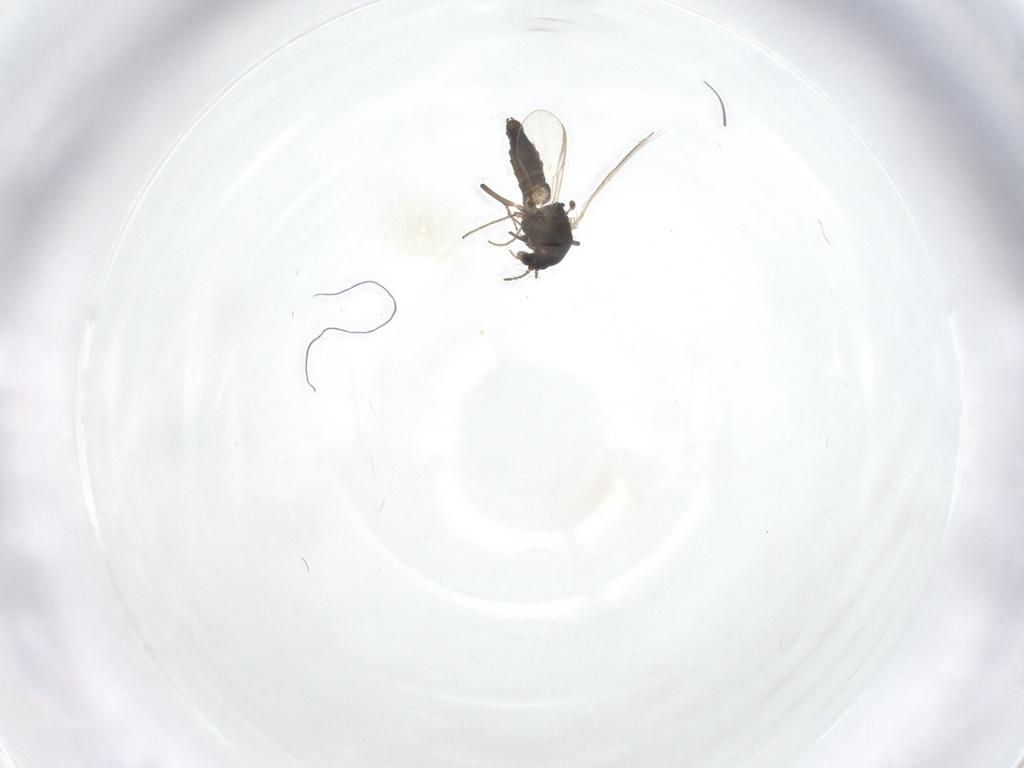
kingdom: Animalia
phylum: Arthropoda
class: Insecta
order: Diptera
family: Chironomidae
